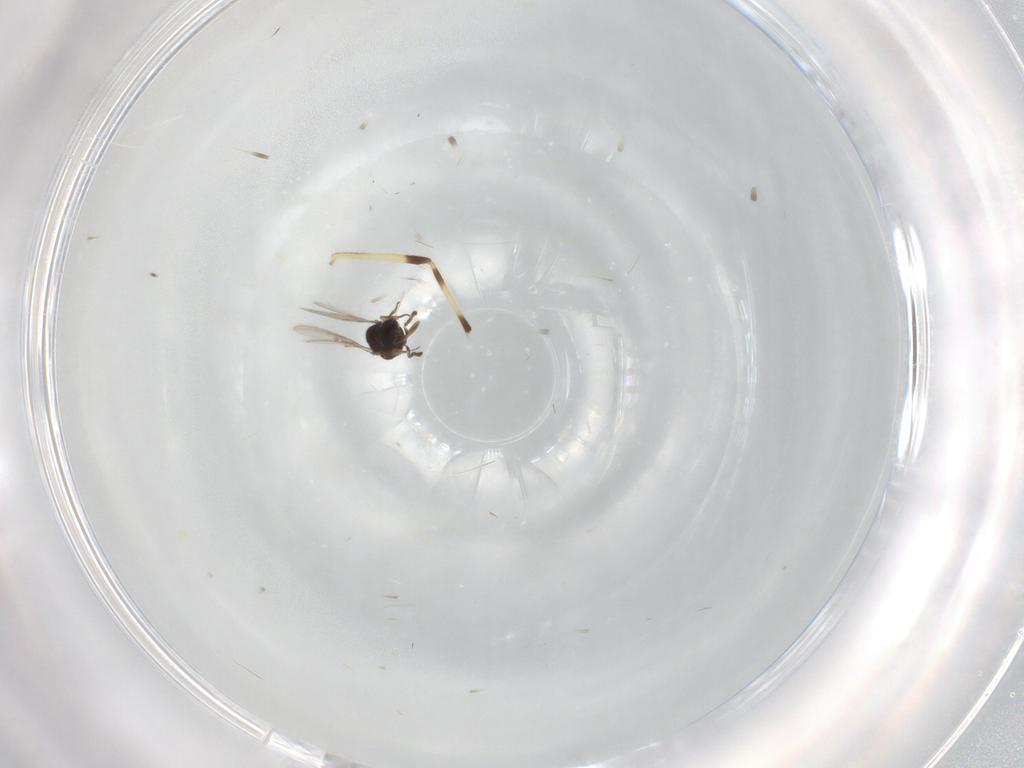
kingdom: Animalia
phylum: Arthropoda
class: Insecta
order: Hymenoptera
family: Scelionidae
